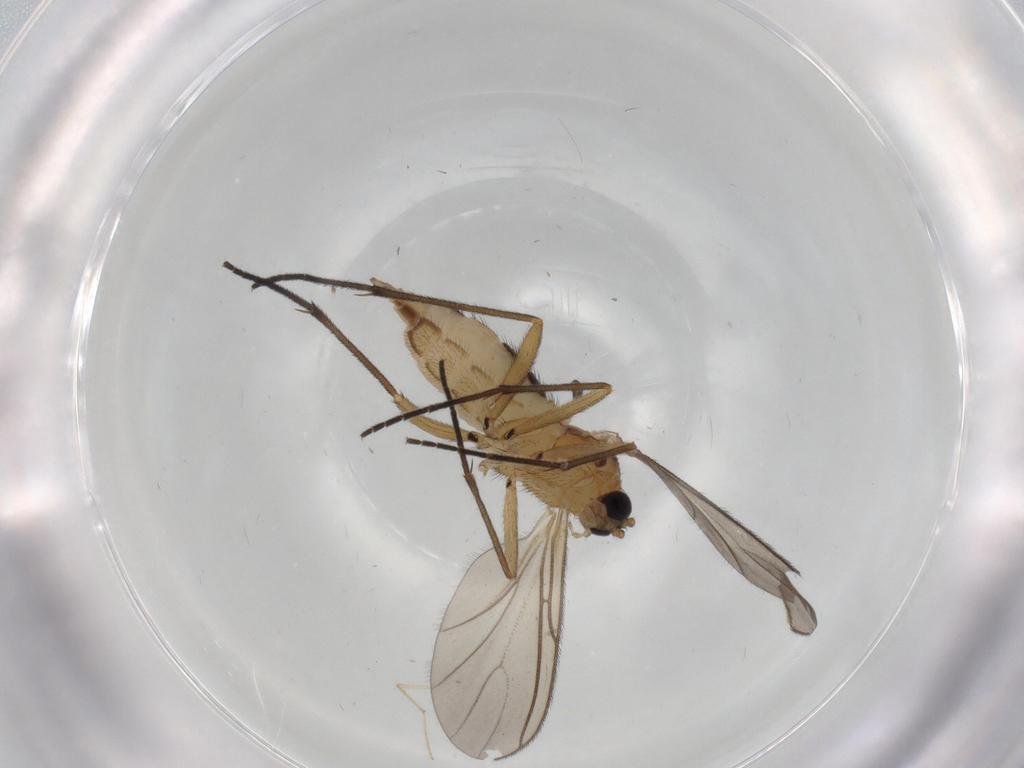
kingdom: Animalia
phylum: Arthropoda
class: Insecta
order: Diptera
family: Chironomidae
